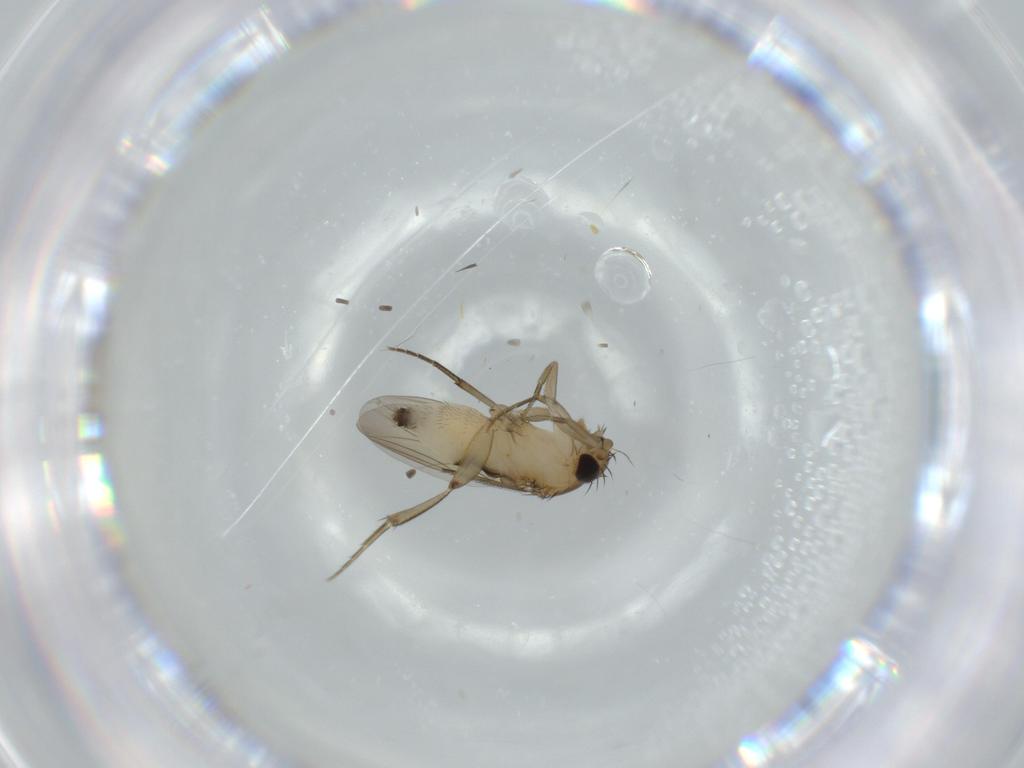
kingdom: Animalia
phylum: Arthropoda
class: Insecta
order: Diptera
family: Phoridae
